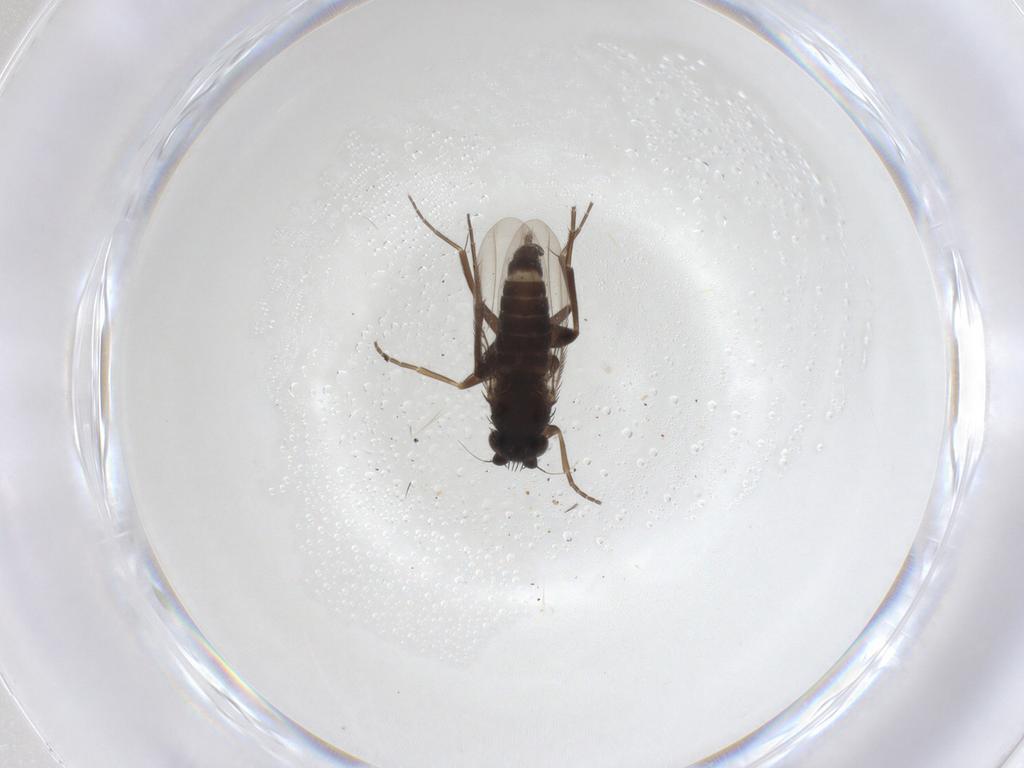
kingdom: Animalia
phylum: Arthropoda
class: Insecta
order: Diptera
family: Phoridae
